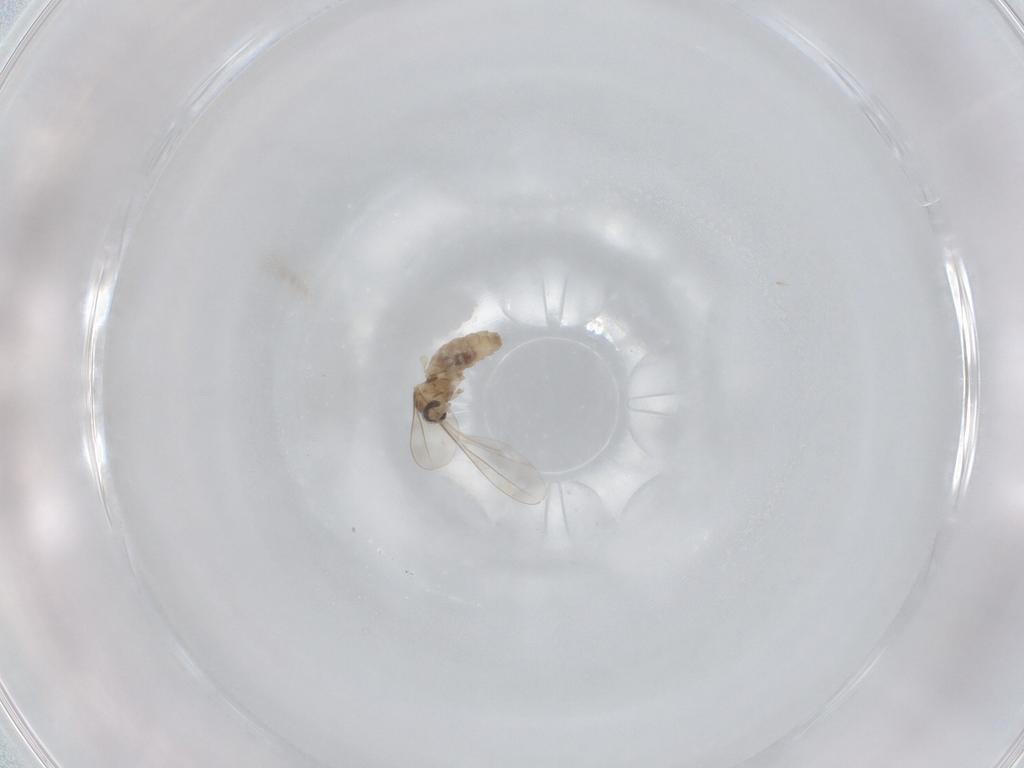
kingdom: Animalia
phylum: Arthropoda
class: Insecta
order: Diptera
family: Cecidomyiidae
